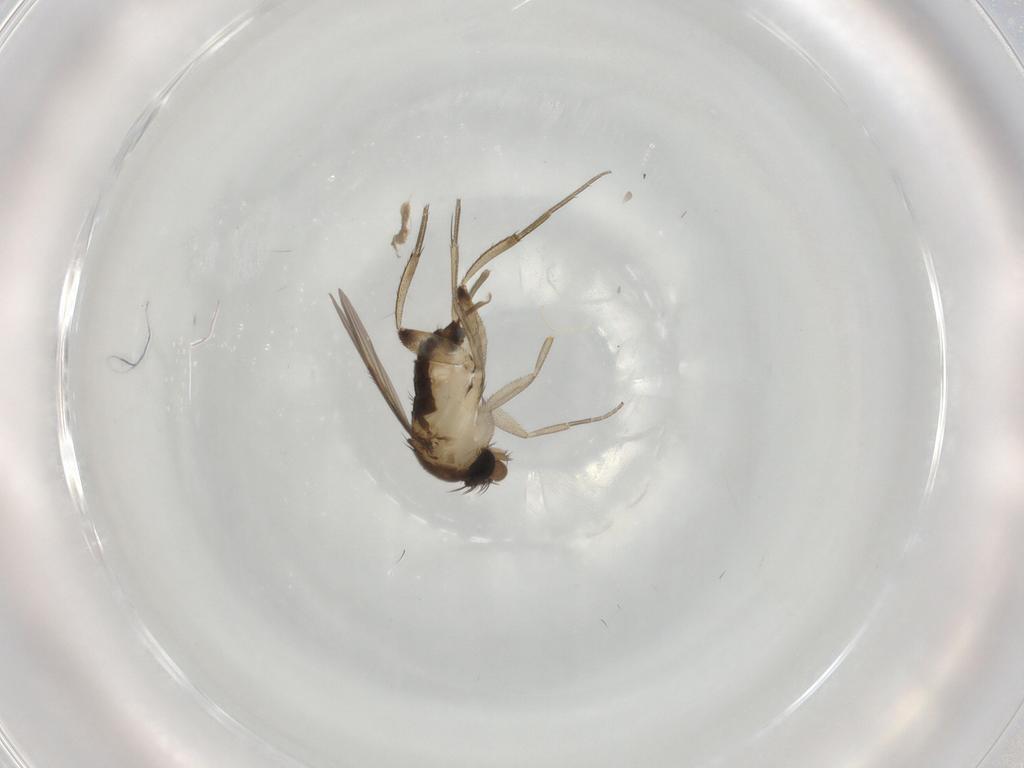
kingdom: Animalia
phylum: Arthropoda
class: Insecta
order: Diptera
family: Phoridae
